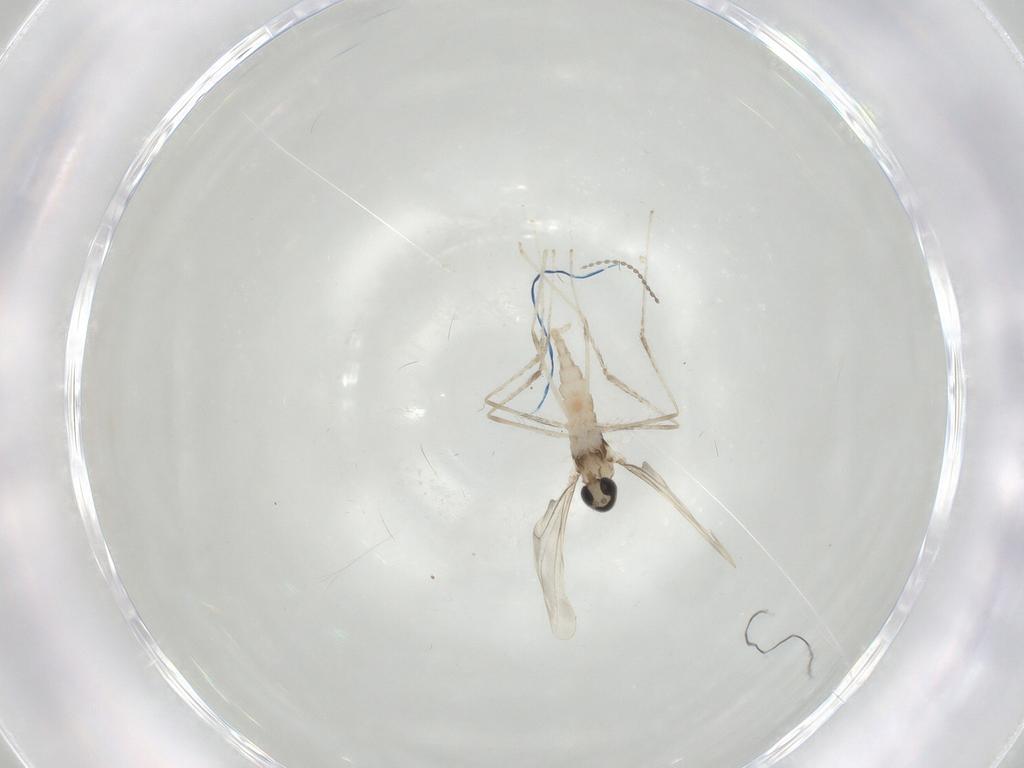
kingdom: Animalia
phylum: Arthropoda
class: Insecta
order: Diptera
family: Cecidomyiidae
